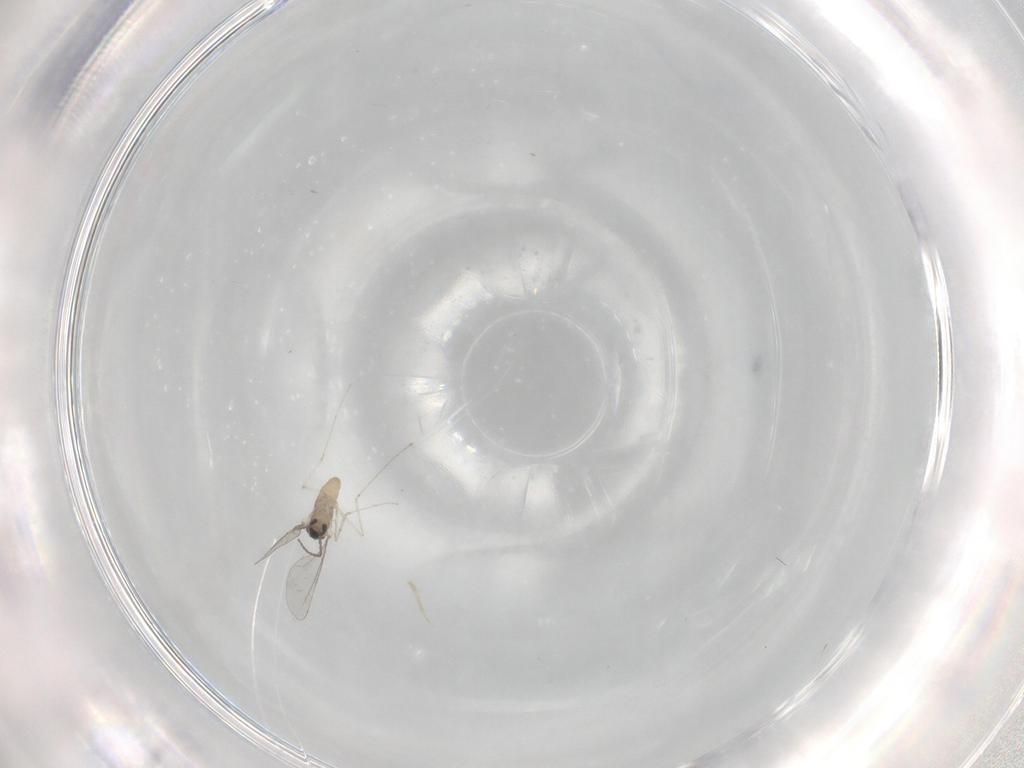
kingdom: Animalia
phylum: Arthropoda
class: Insecta
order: Diptera
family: Cecidomyiidae
